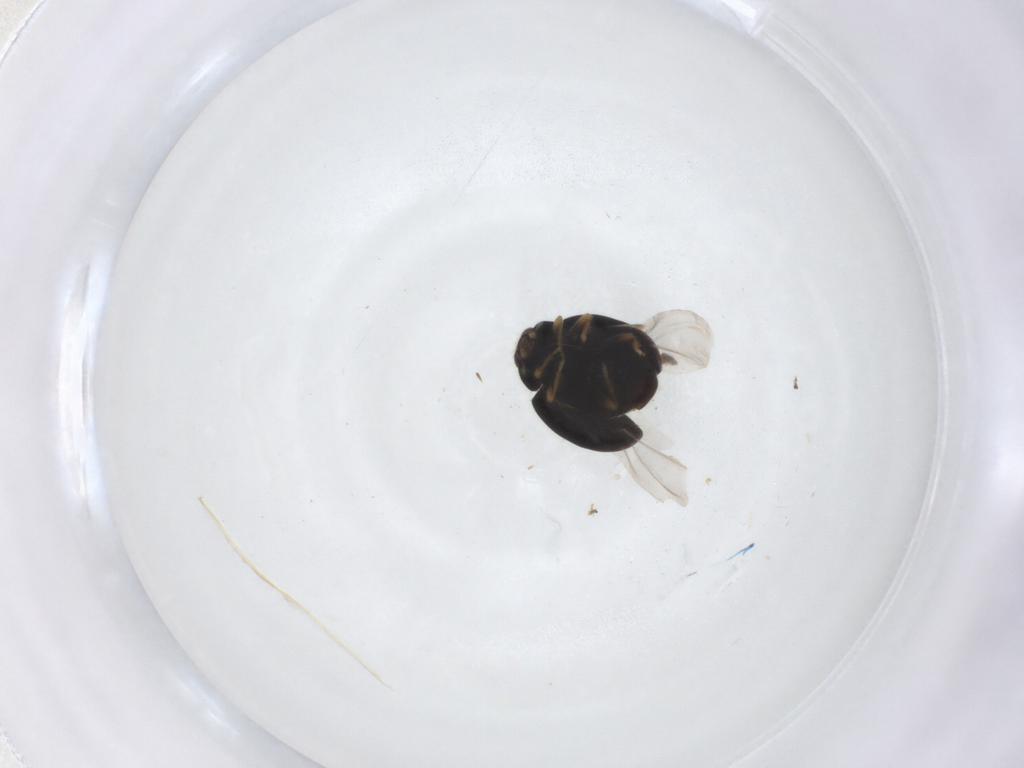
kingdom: Animalia
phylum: Arthropoda
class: Insecta
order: Coleoptera
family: Coccinellidae
